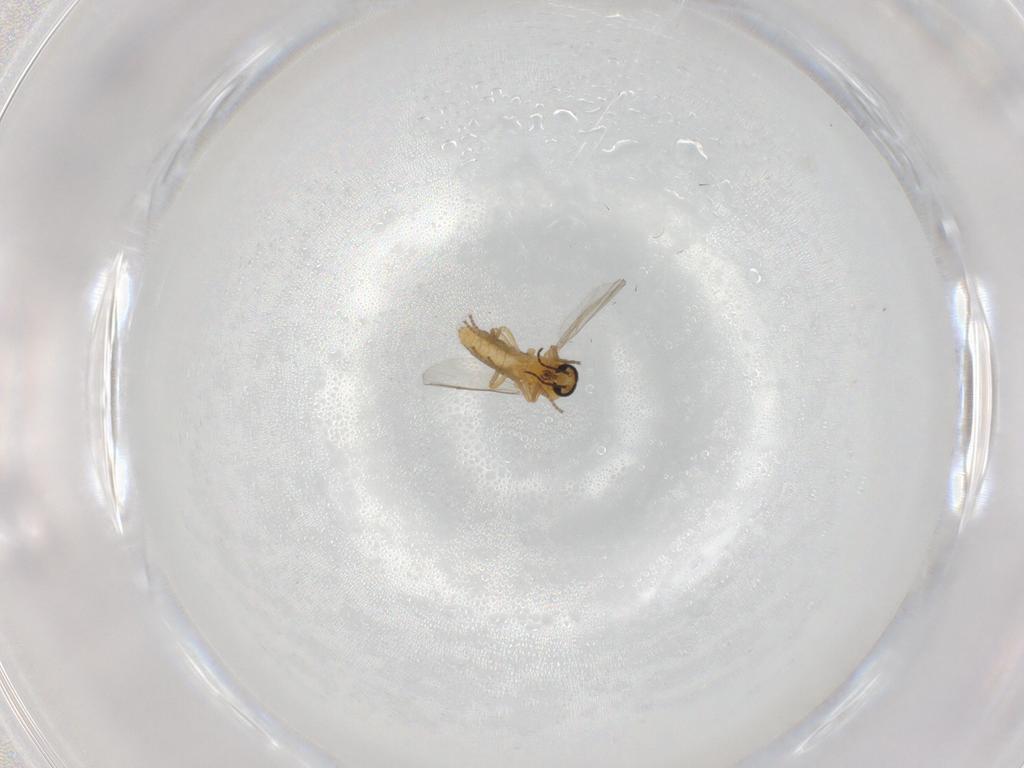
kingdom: Animalia
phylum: Arthropoda
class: Insecta
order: Diptera
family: Ceratopogonidae
